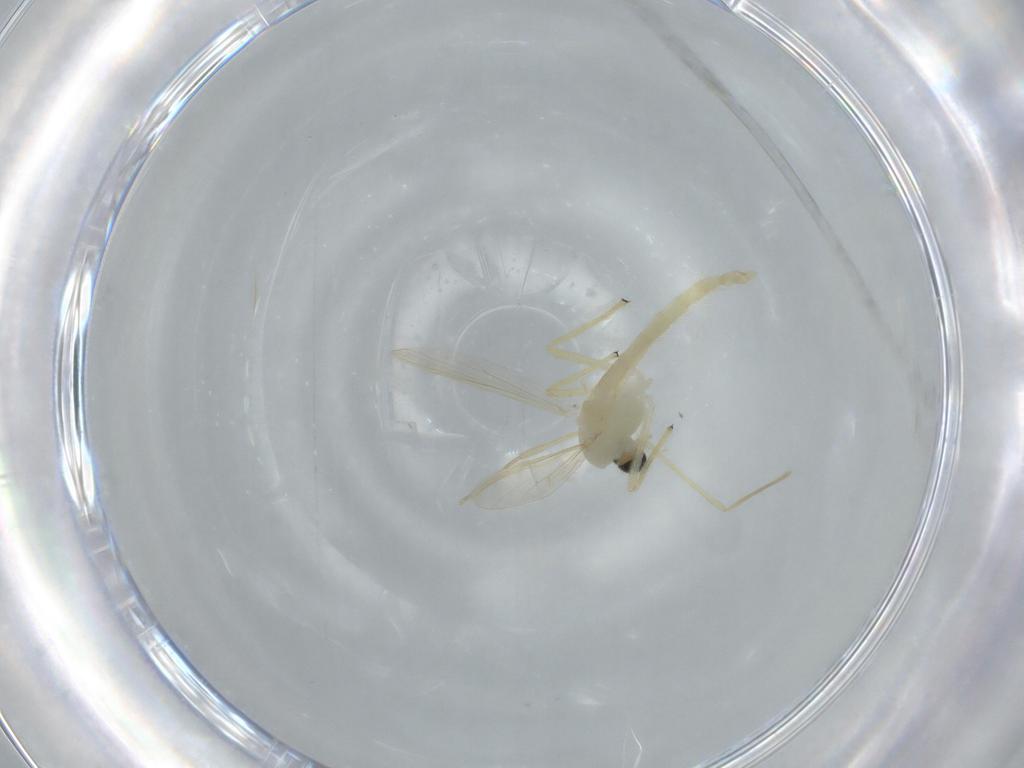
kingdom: Animalia
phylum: Arthropoda
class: Insecta
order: Diptera
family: Chironomidae
